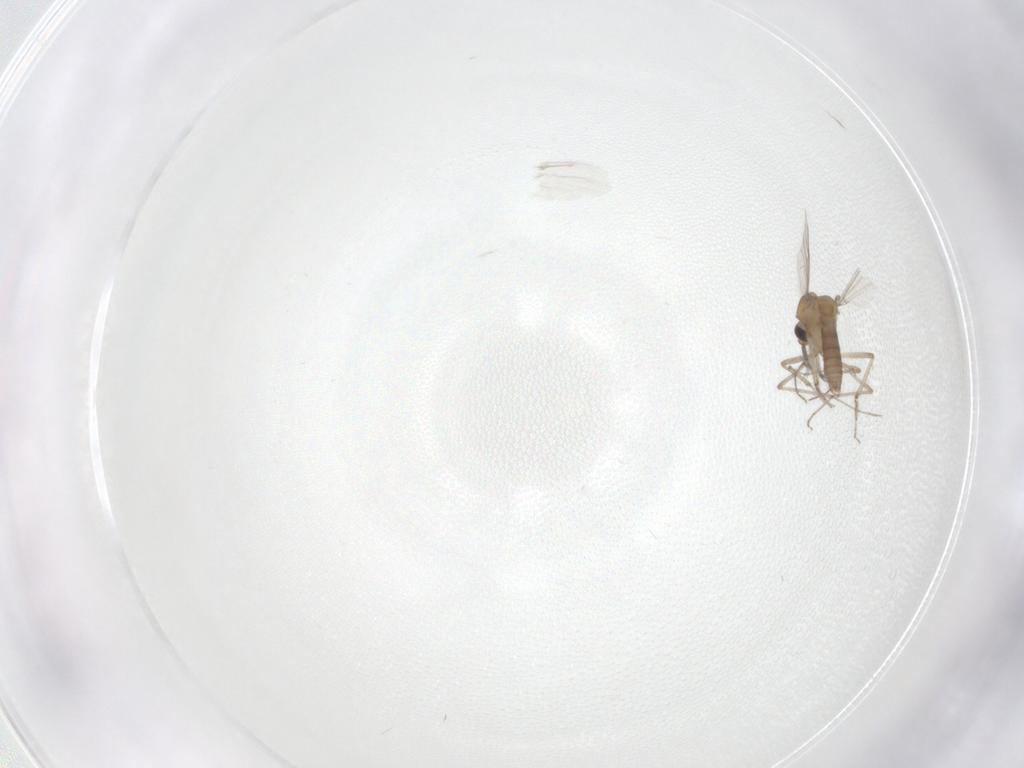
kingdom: Animalia
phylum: Arthropoda
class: Insecta
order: Diptera
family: Ceratopogonidae
